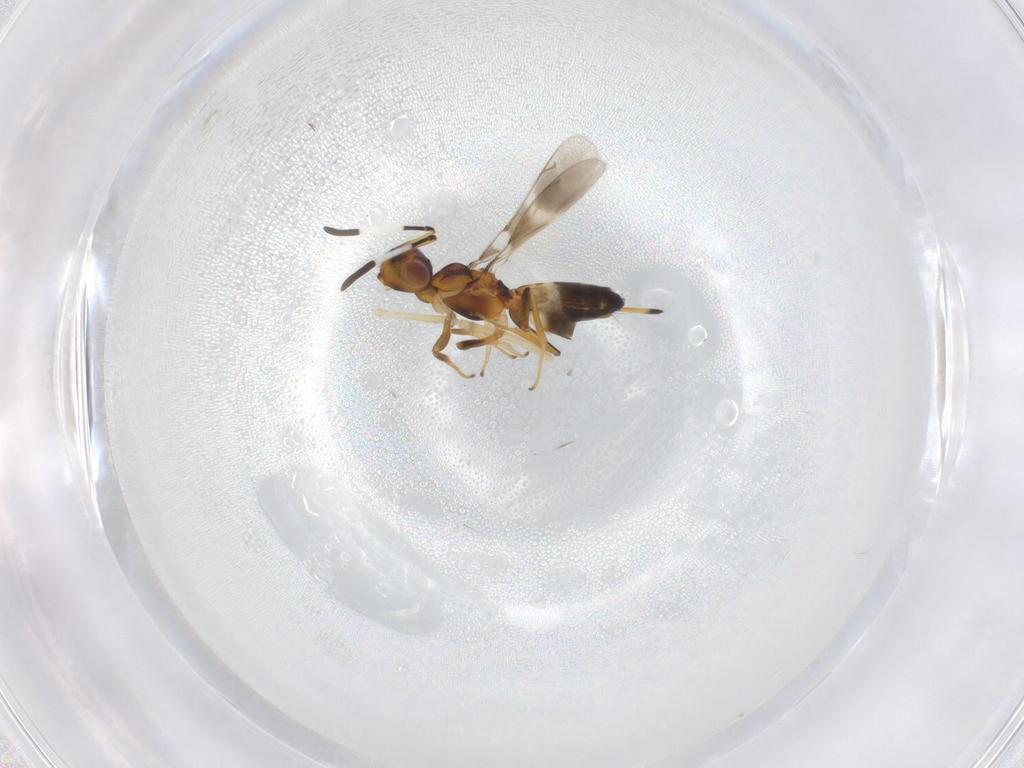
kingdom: Animalia
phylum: Arthropoda
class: Insecta
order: Hymenoptera
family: Eupelmidae
